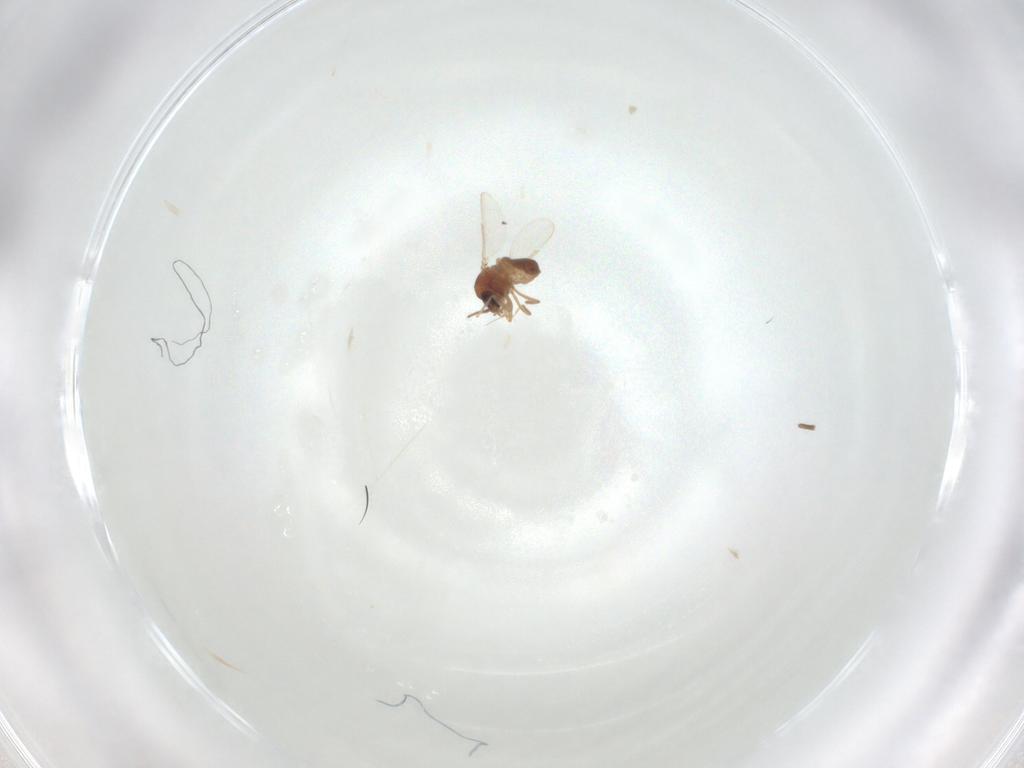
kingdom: Animalia
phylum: Arthropoda
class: Insecta
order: Diptera
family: Ceratopogonidae
